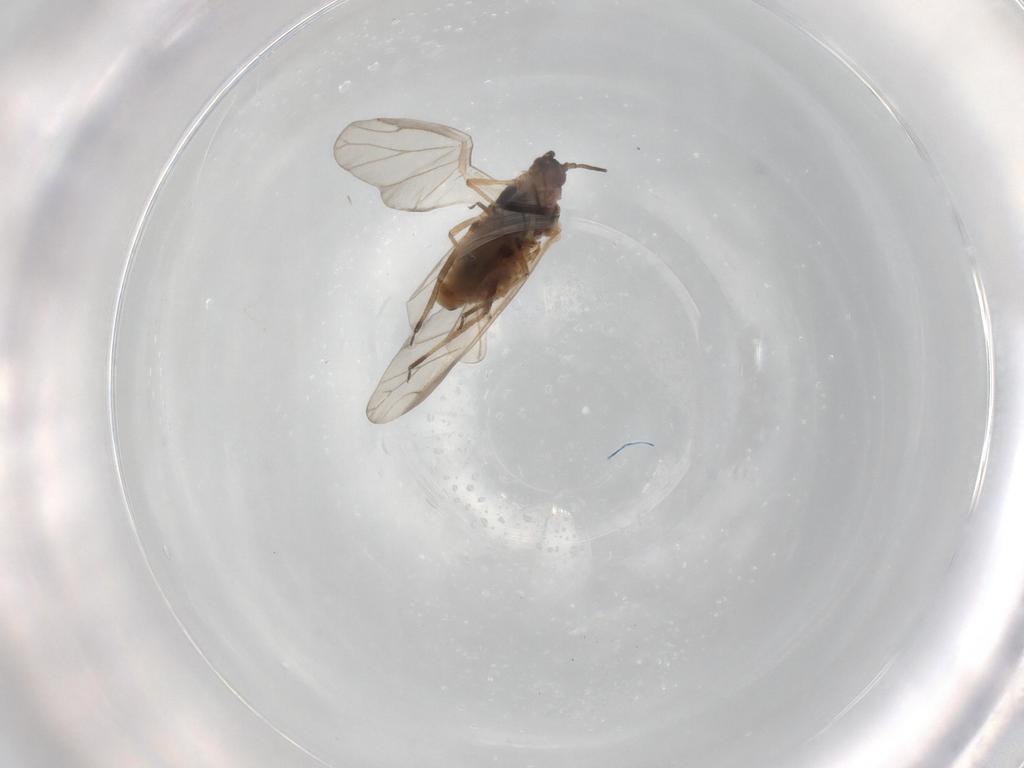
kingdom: Animalia
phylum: Arthropoda
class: Insecta
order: Hemiptera
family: Aphididae
